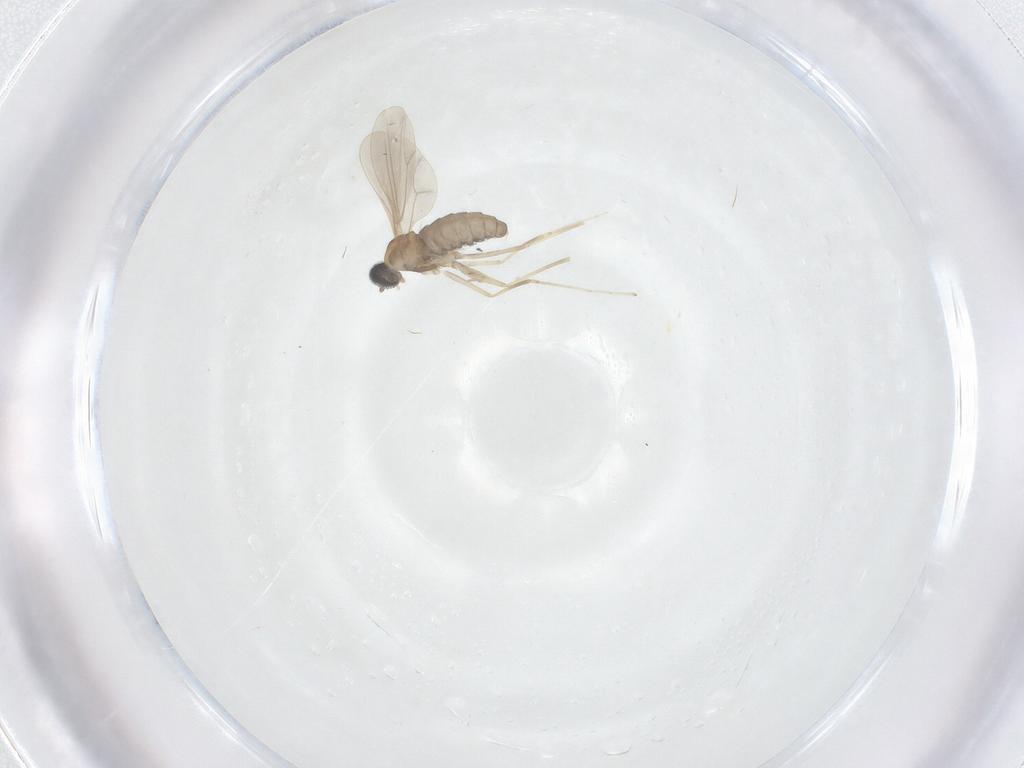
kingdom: Animalia
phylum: Arthropoda
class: Insecta
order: Diptera
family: Cecidomyiidae
